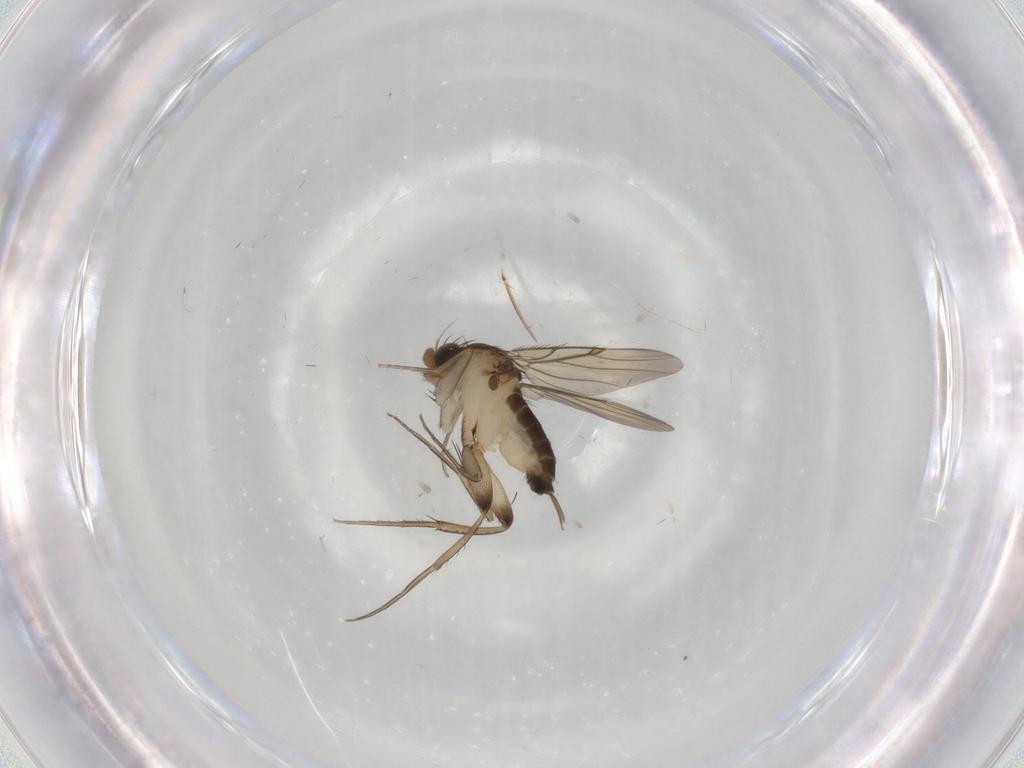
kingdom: Animalia
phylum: Arthropoda
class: Insecta
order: Diptera
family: Phoridae
